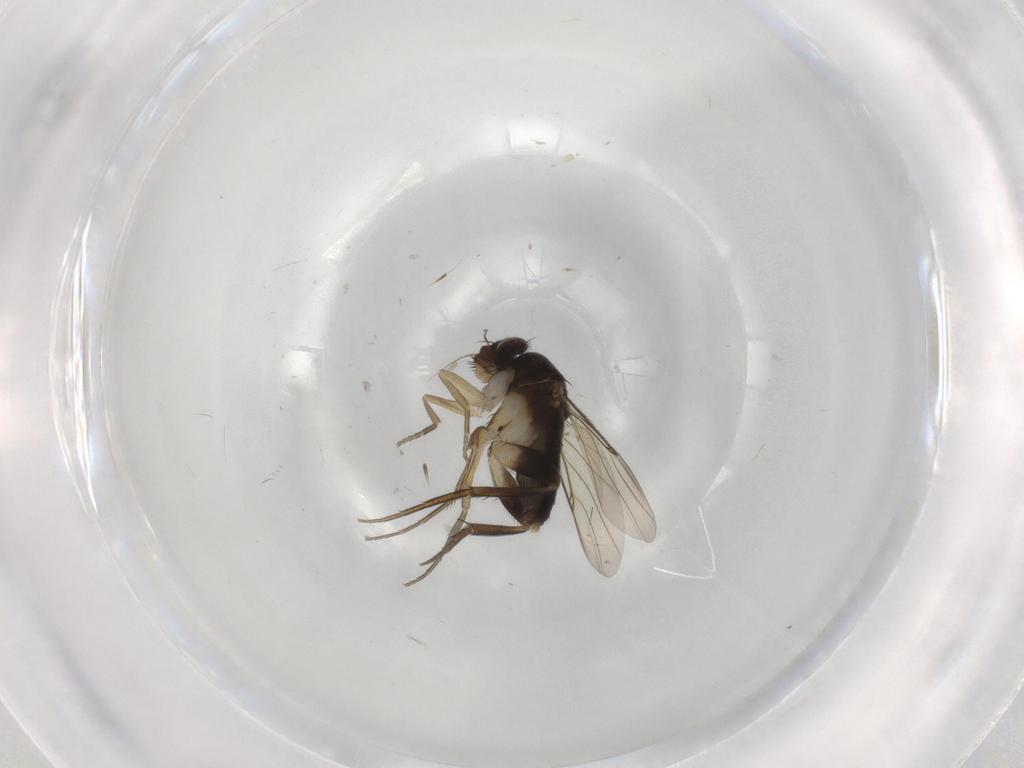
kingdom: Animalia
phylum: Arthropoda
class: Insecta
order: Diptera
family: Phoridae
